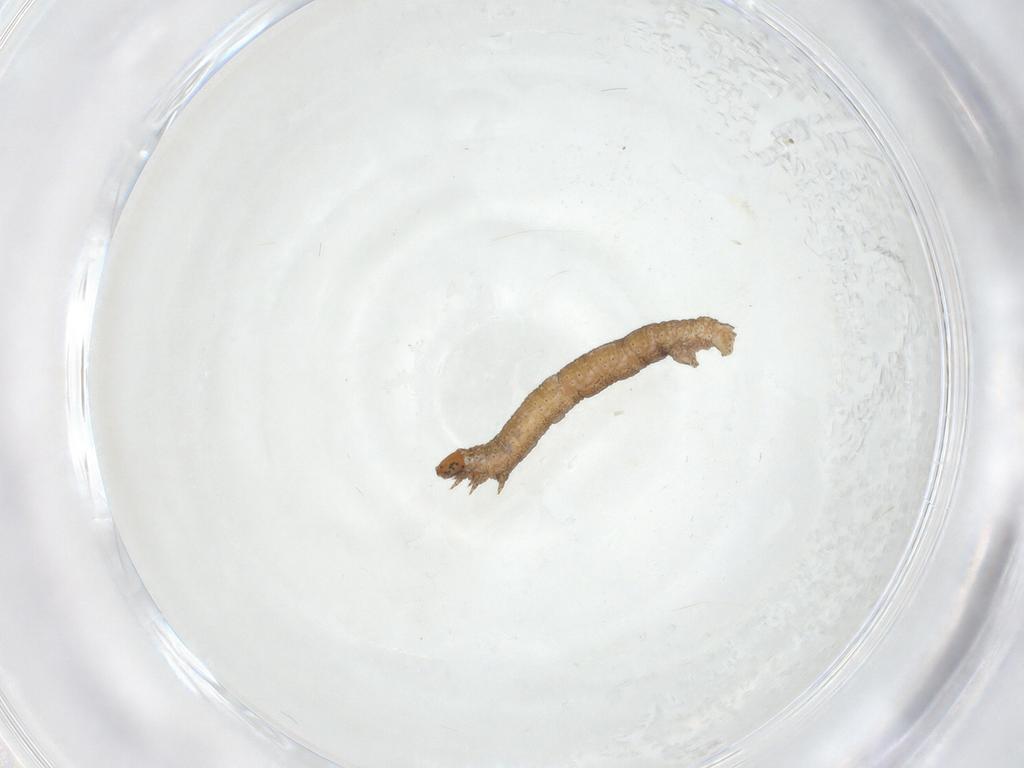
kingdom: Animalia
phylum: Arthropoda
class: Insecta
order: Lepidoptera
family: Geometridae
